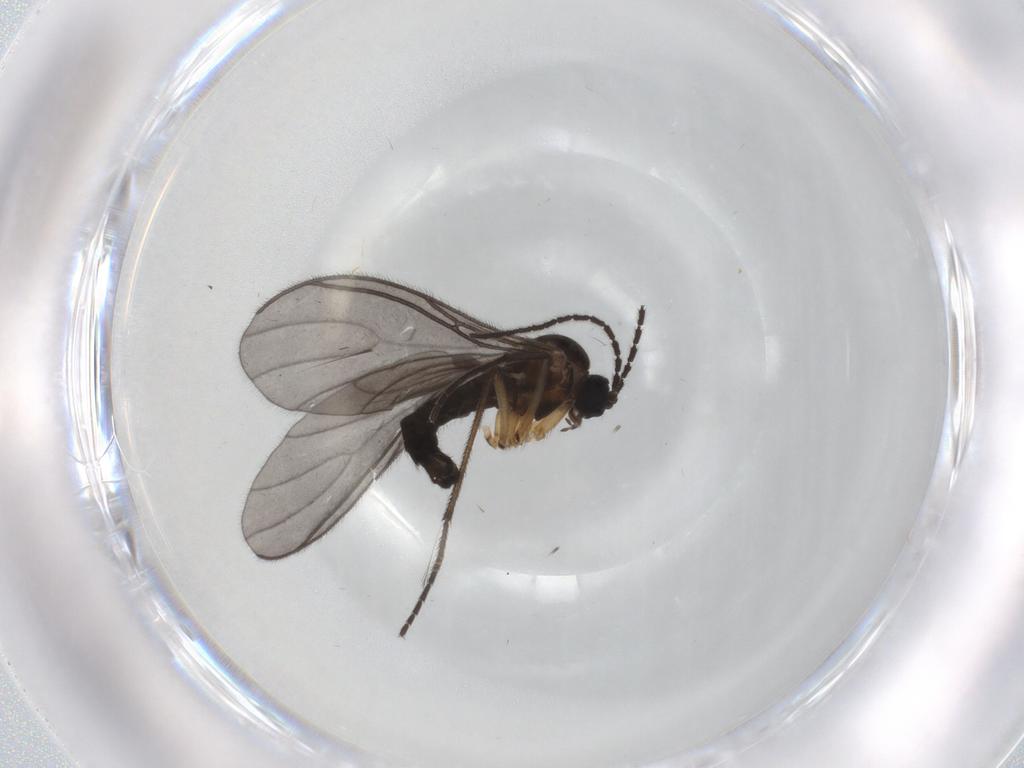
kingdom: Animalia
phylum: Arthropoda
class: Insecta
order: Diptera
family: Sciaridae
